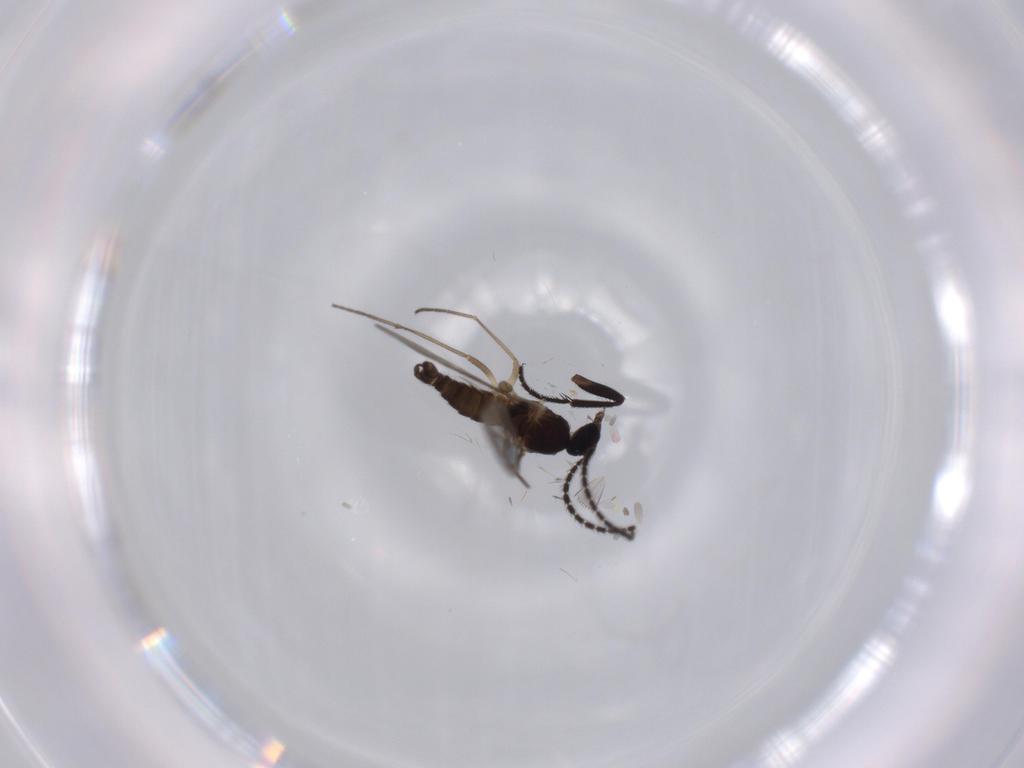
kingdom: Animalia
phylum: Arthropoda
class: Insecta
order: Diptera
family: Sciaridae
